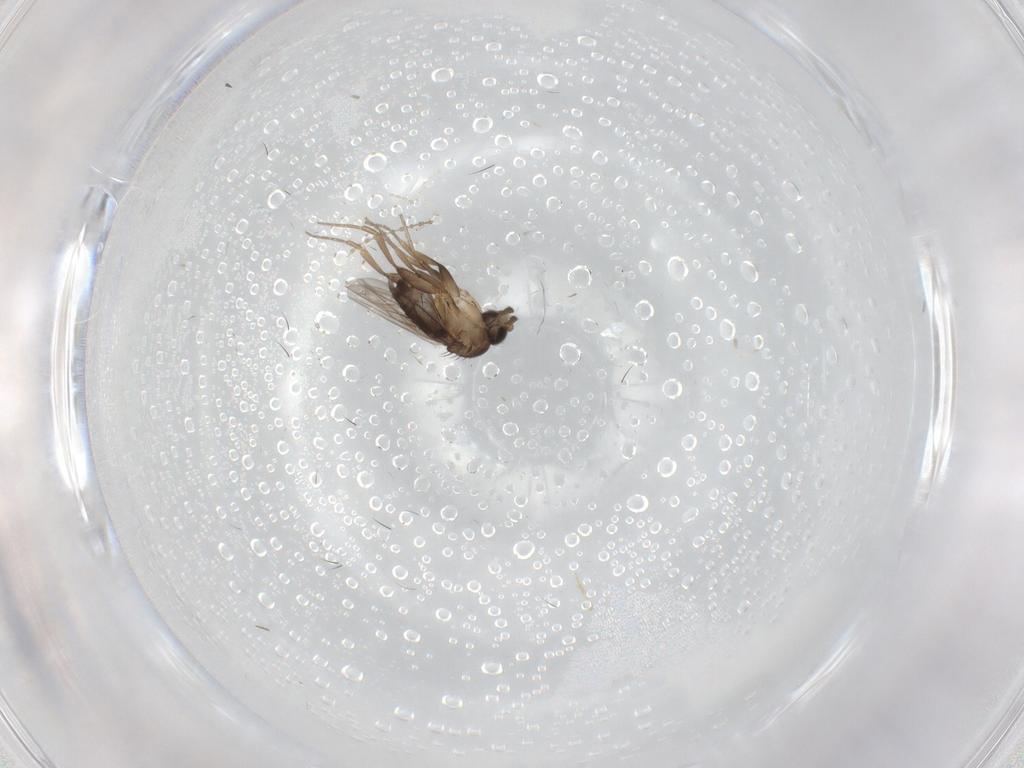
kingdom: Animalia
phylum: Arthropoda
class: Insecta
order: Diptera
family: Ceratopogonidae
